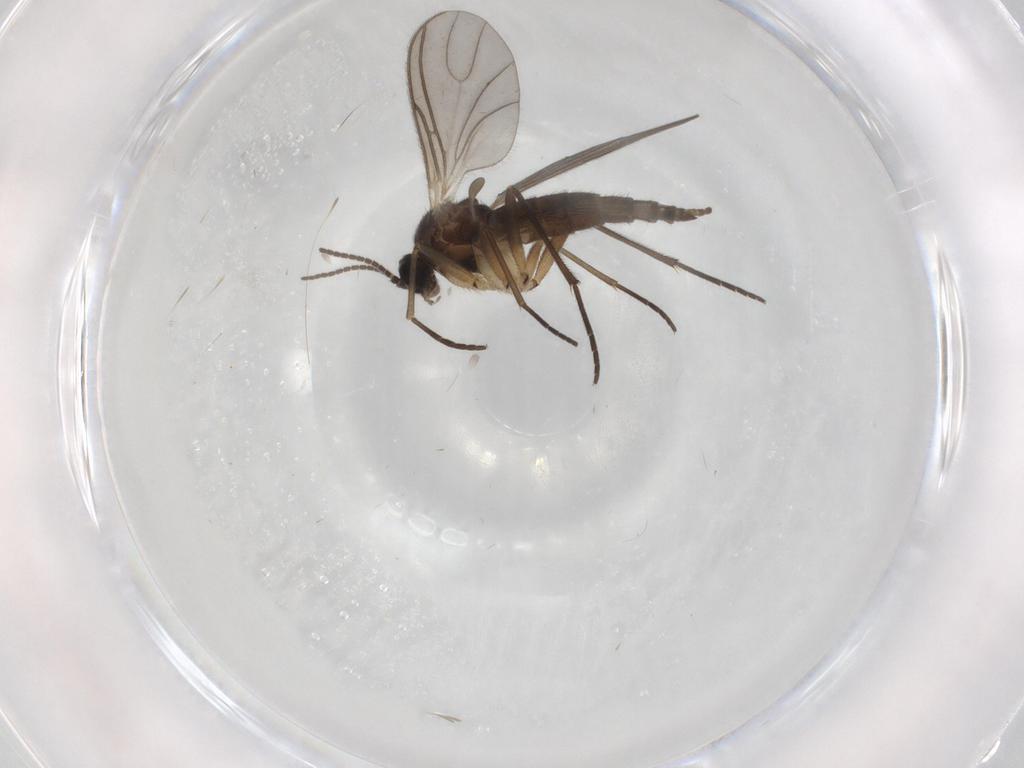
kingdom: Animalia
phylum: Arthropoda
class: Insecta
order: Diptera
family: Sciaridae
